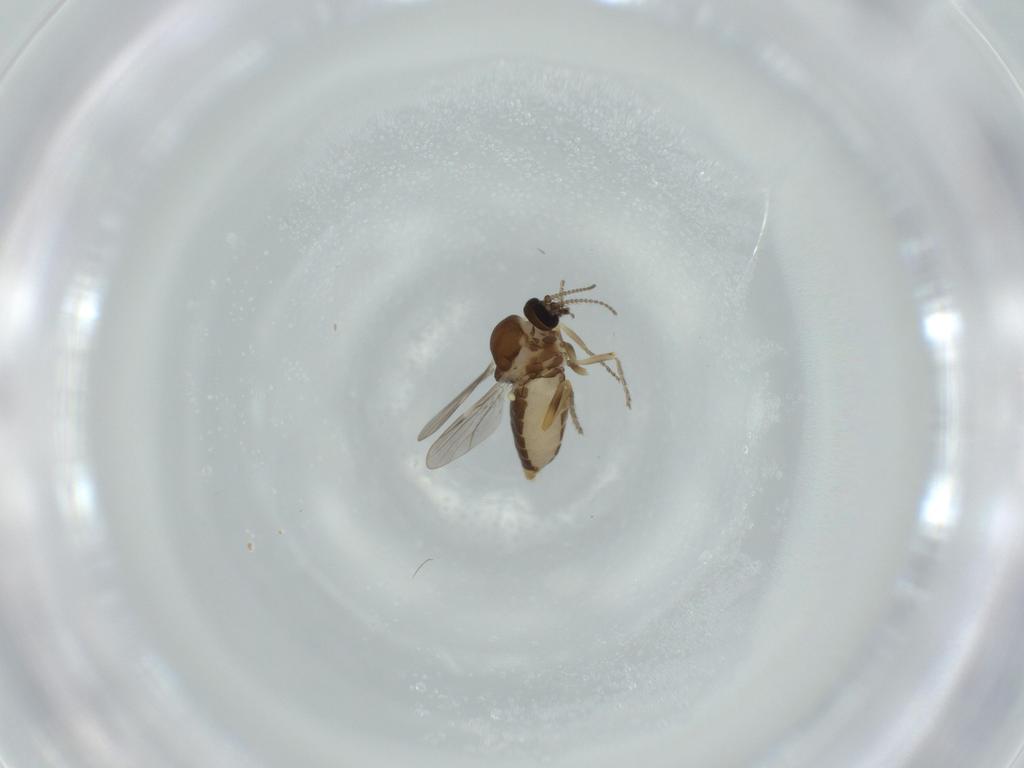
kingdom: Animalia
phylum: Arthropoda
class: Insecta
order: Diptera
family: Ceratopogonidae
